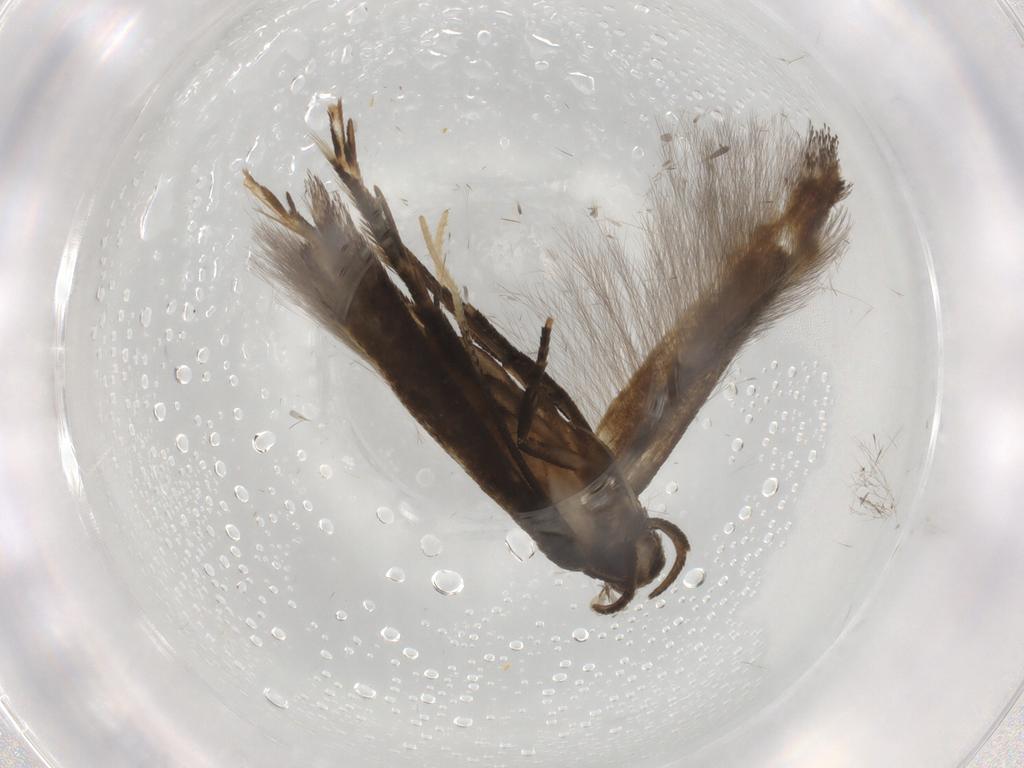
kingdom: Animalia
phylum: Arthropoda
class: Insecta
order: Lepidoptera
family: Cosmopterigidae
